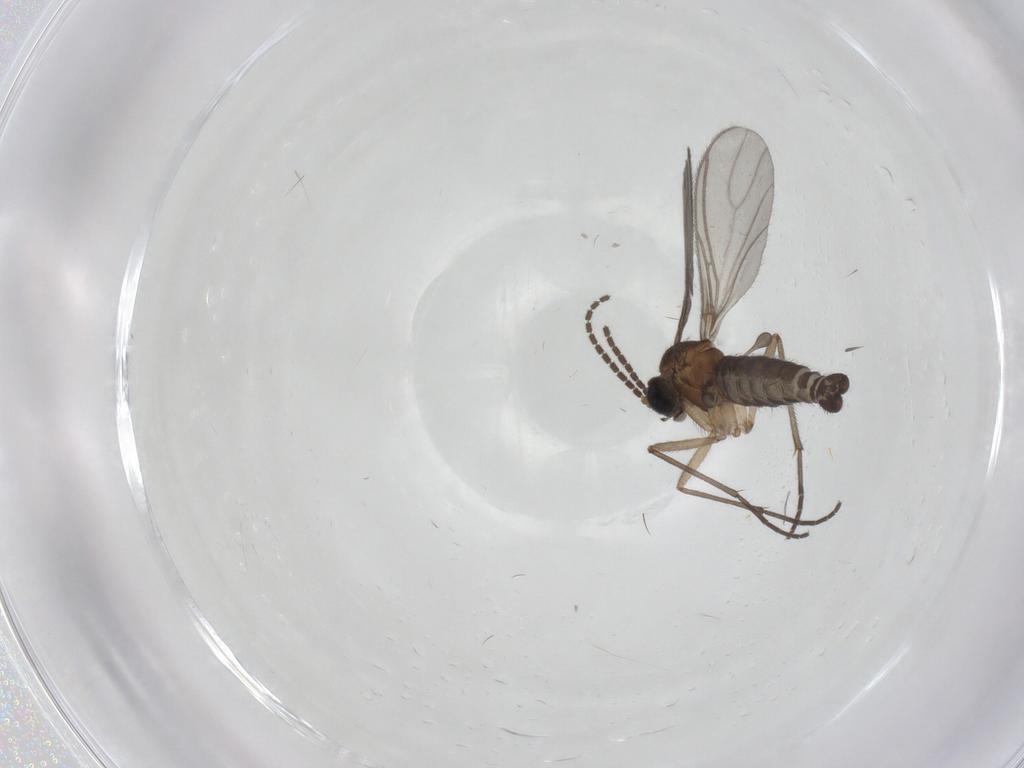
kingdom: Animalia
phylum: Arthropoda
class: Insecta
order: Diptera
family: Sciaridae
